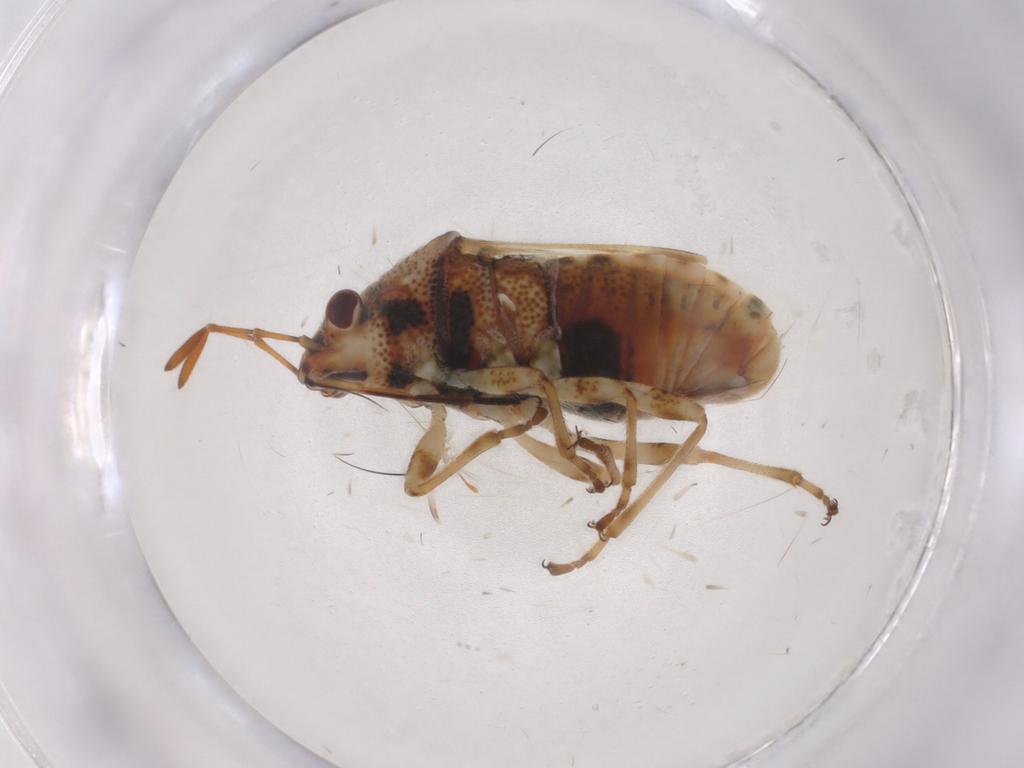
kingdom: Animalia
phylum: Arthropoda
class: Insecta
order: Hemiptera
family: Lygaeidae
